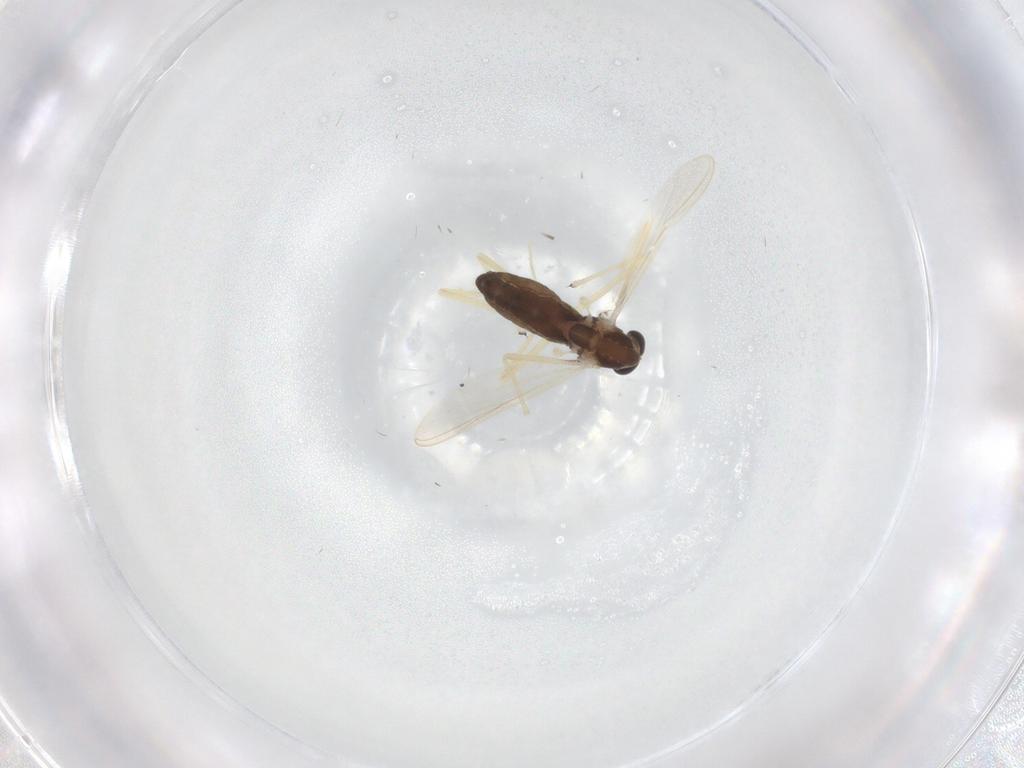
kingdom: Animalia
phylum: Arthropoda
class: Insecta
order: Diptera
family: Chironomidae
